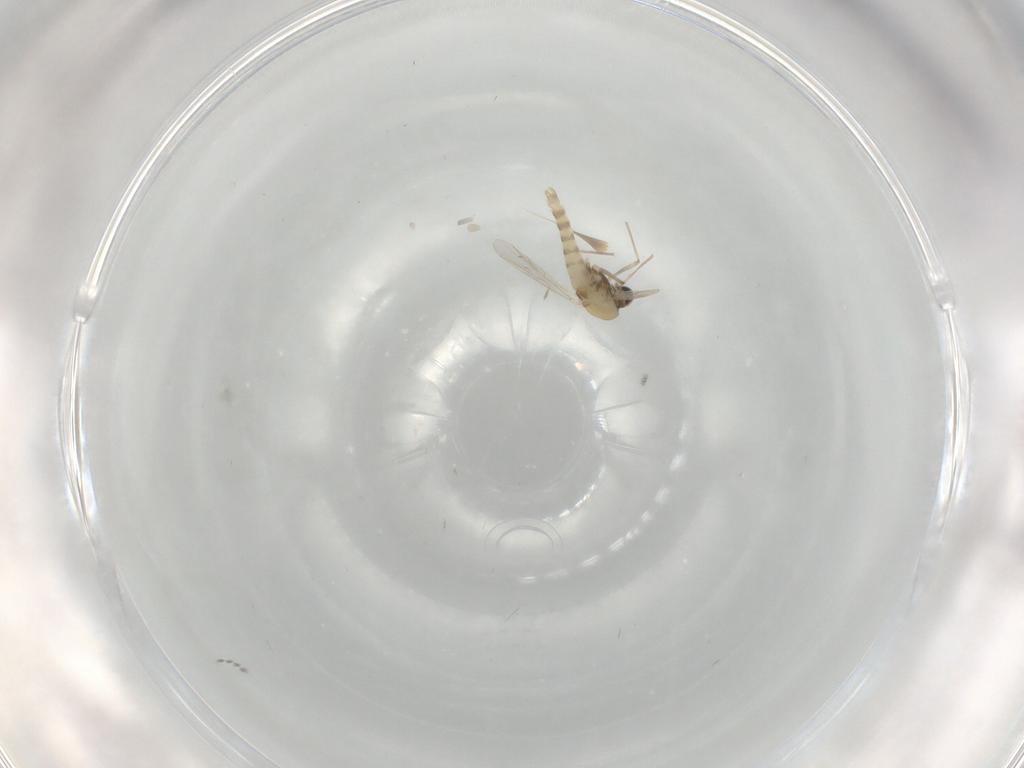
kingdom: Animalia
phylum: Arthropoda
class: Insecta
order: Diptera
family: Chironomidae
